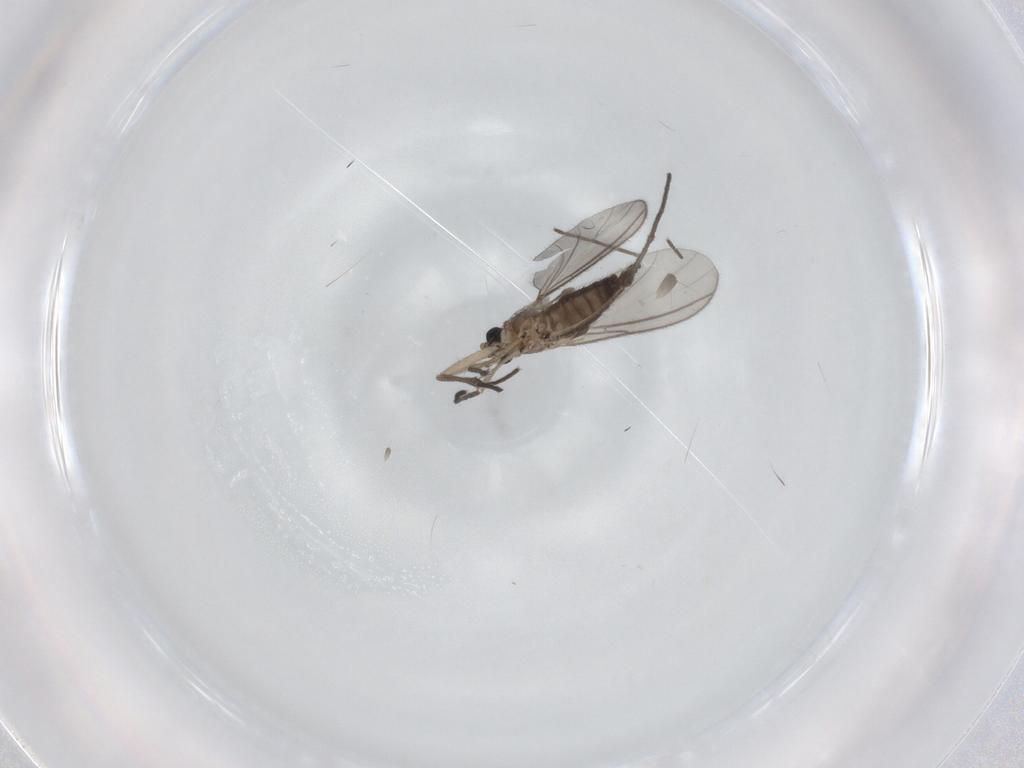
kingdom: Animalia
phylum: Arthropoda
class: Insecta
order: Diptera
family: Sciaridae
